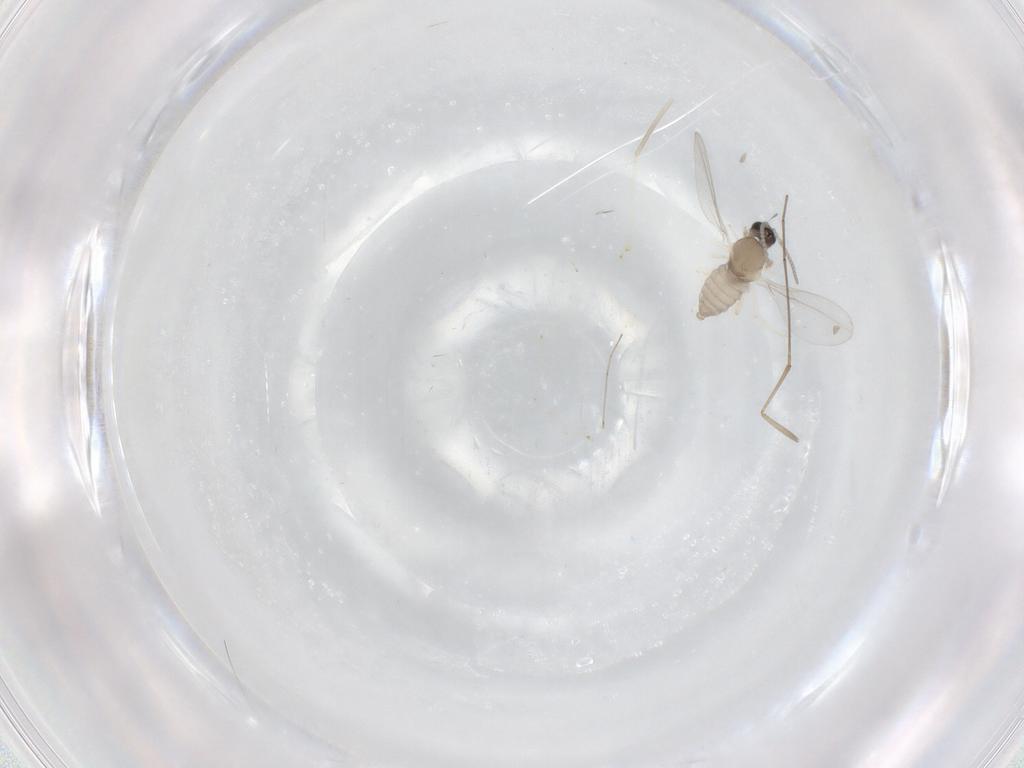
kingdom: Animalia
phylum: Arthropoda
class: Insecta
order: Diptera
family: Cecidomyiidae
